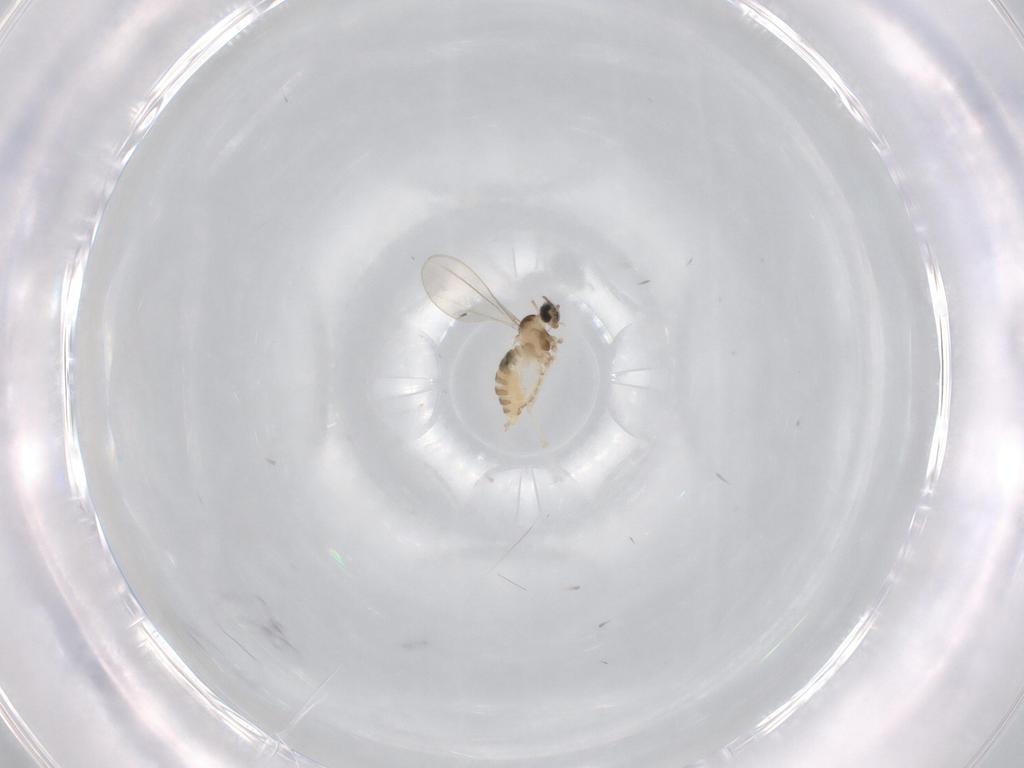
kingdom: Animalia
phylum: Arthropoda
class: Insecta
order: Diptera
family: Cecidomyiidae
